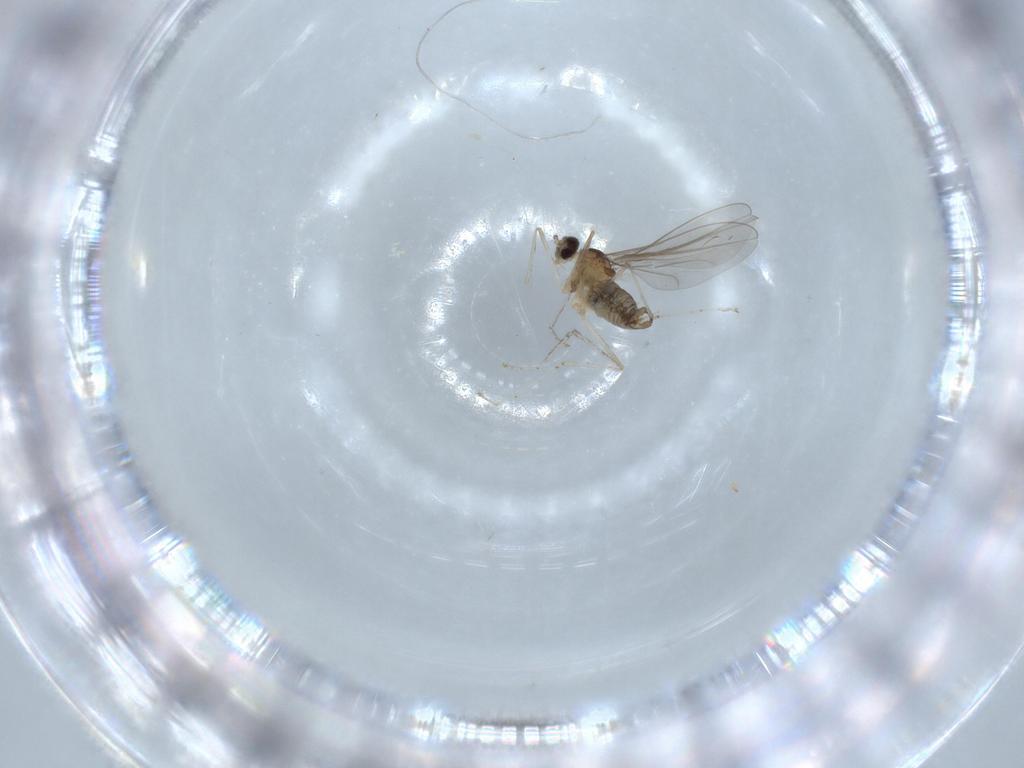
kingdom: Animalia
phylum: Arthropoda
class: Insecta
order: Diptera
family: Cecidomyiidae
